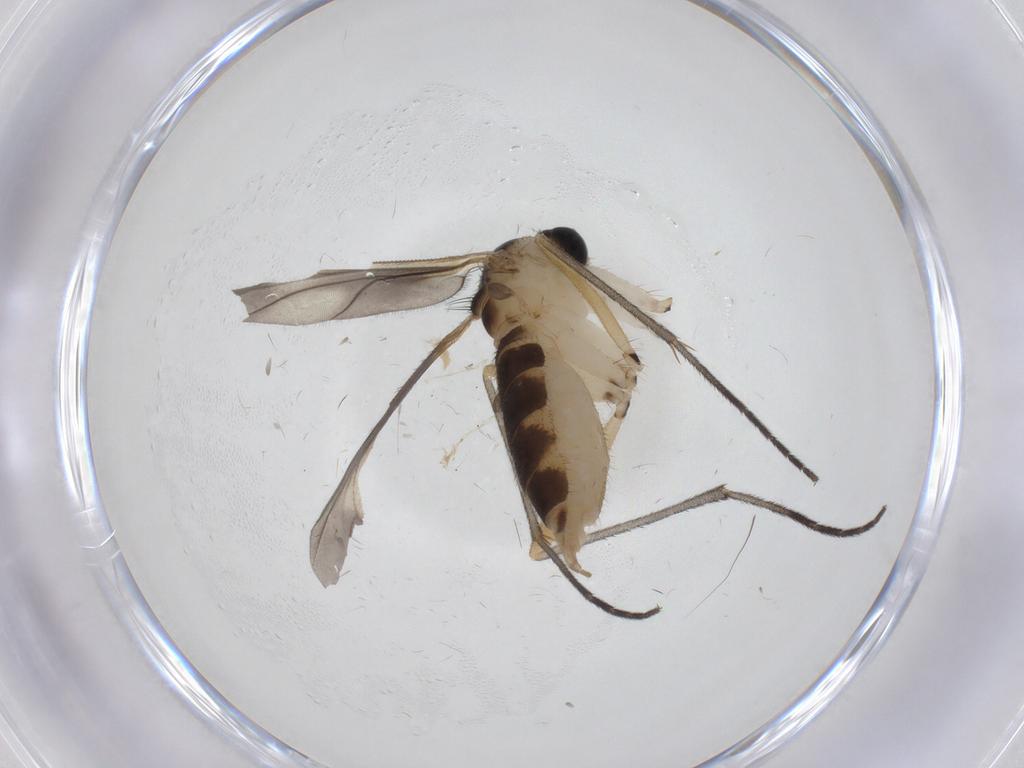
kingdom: Animalia
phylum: Arthropoda
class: Insecta
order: Diptera
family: Sciaridae
